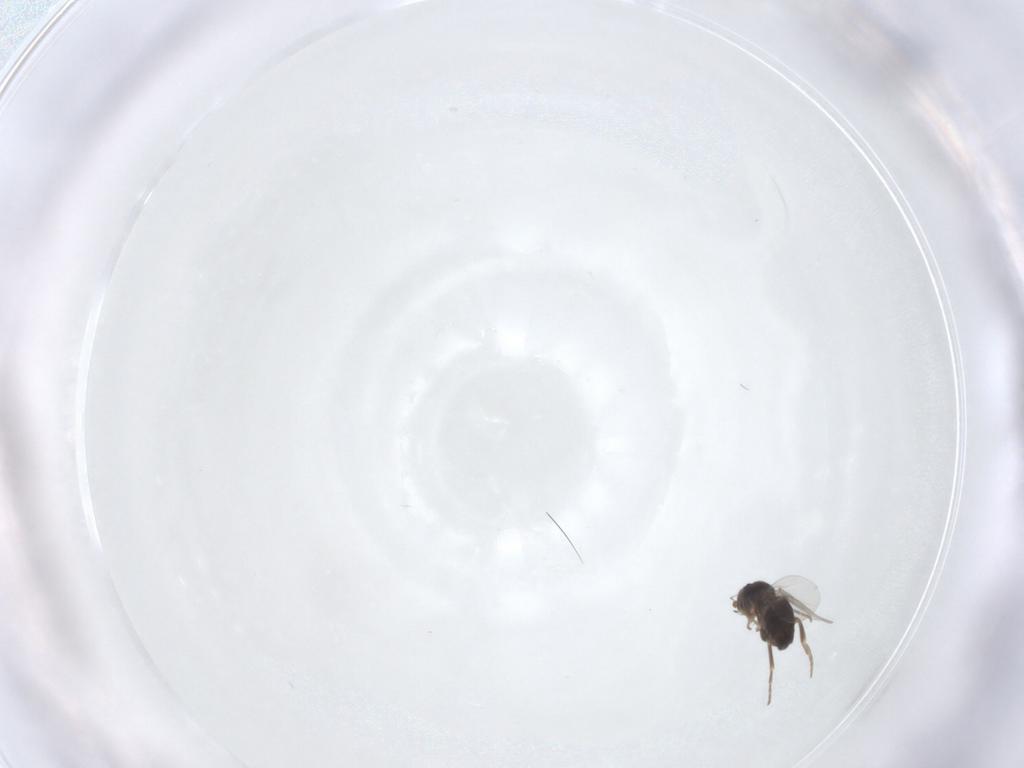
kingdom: Animalia
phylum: Arthropoda
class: Insecta
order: Diptera
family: Phoridae
